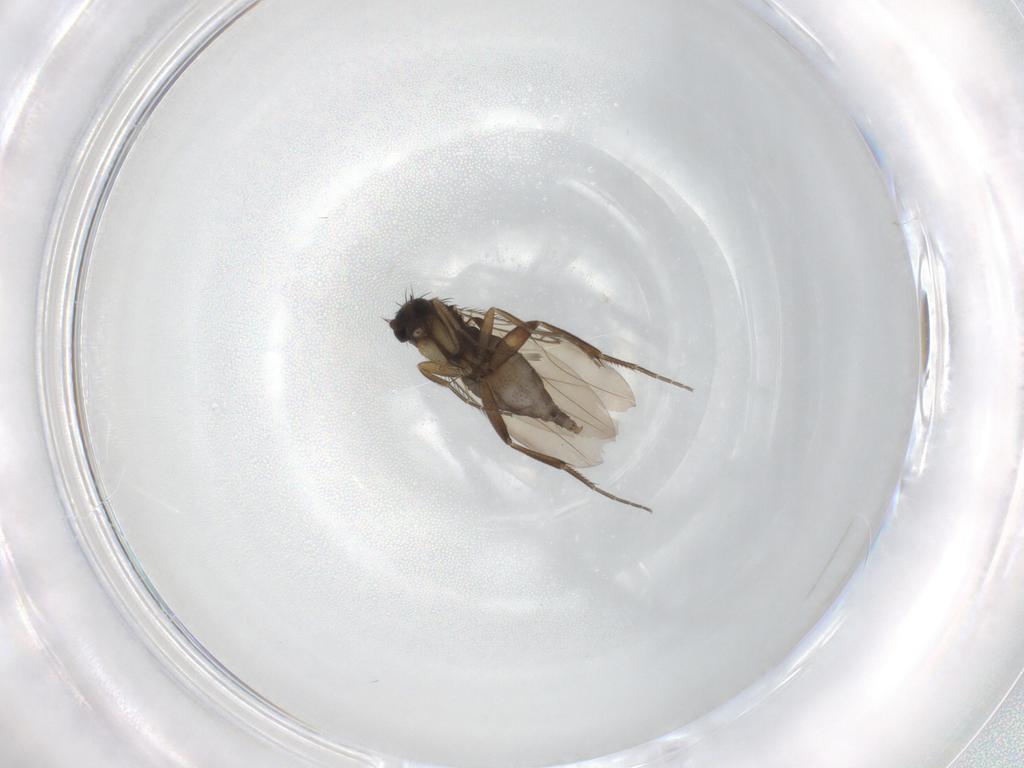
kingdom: Animalia
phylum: Arthropoda
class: Insecta
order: Diptera
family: Phoridae
